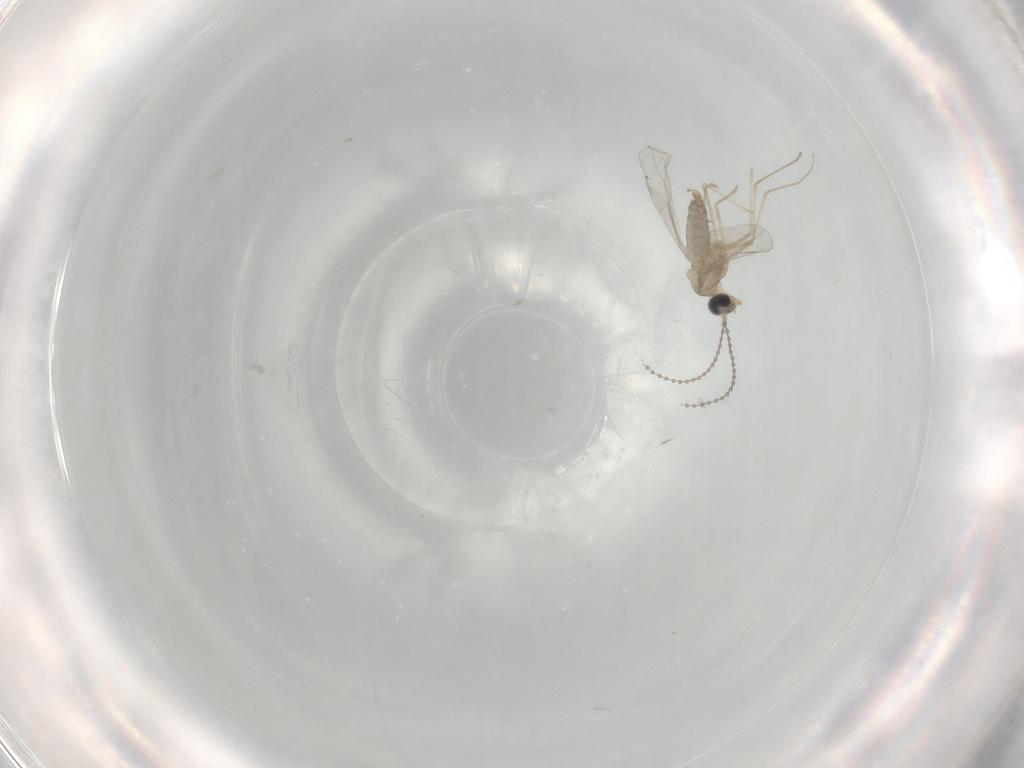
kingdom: Animalia
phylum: Arthropoda
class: Insecta
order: Diptera
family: Cecidomyiidae
